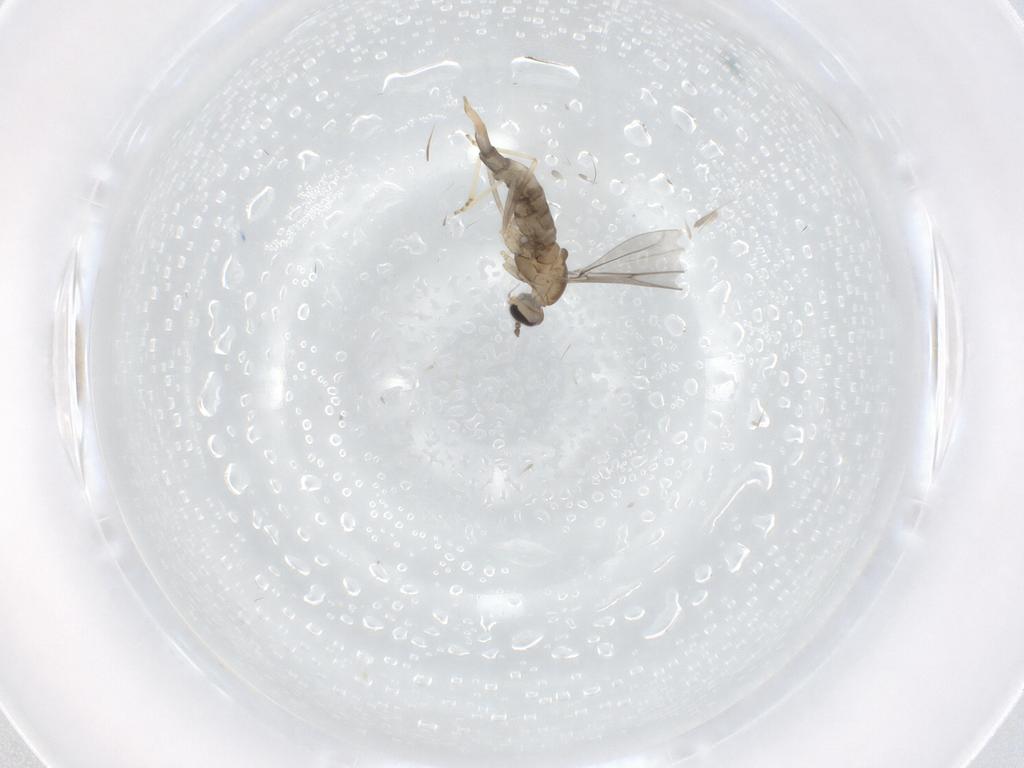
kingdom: Animalia
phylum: Arthropoda
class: Insecta
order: Diptera
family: Cecidomyiidae
